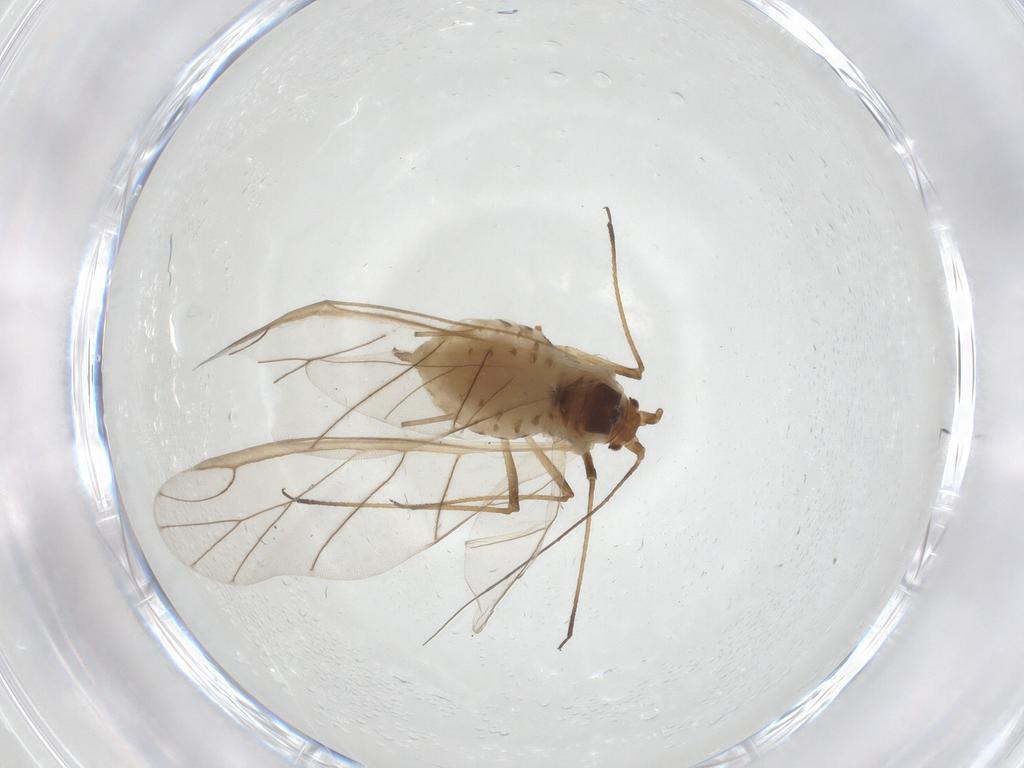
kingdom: Animalia
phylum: Arthropoda
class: Insecta
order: Hemiptera
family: Aphididae
